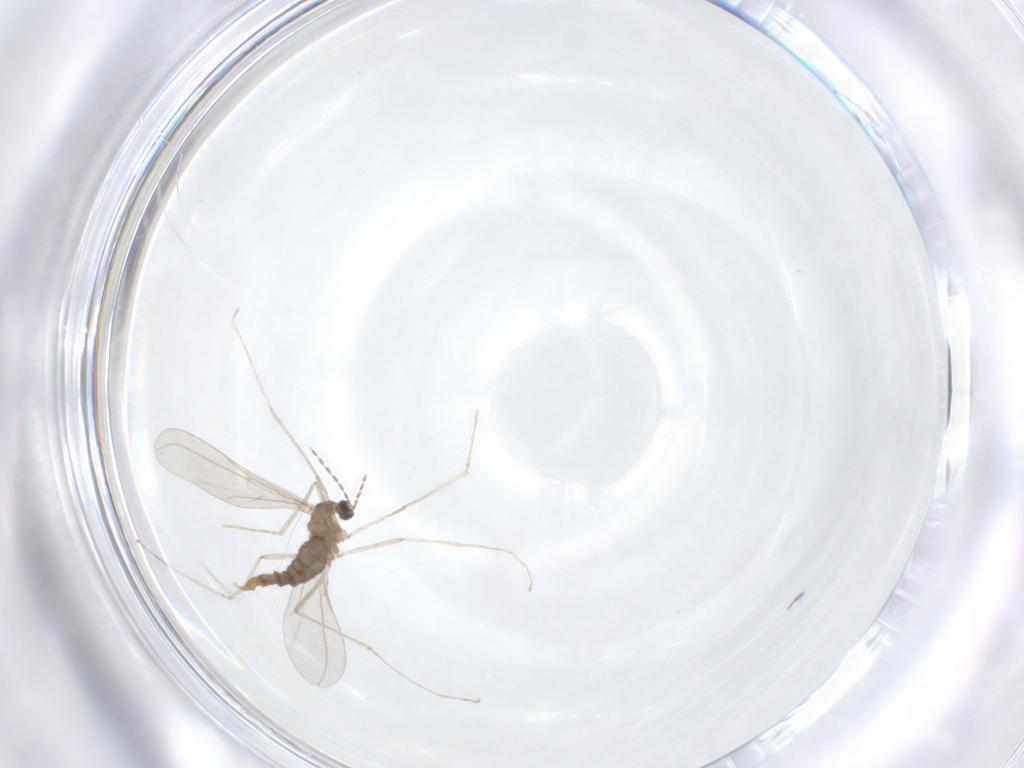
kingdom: Animalia
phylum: Arthropoda
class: Insecta
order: Diptera
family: Cecidomyiidae
